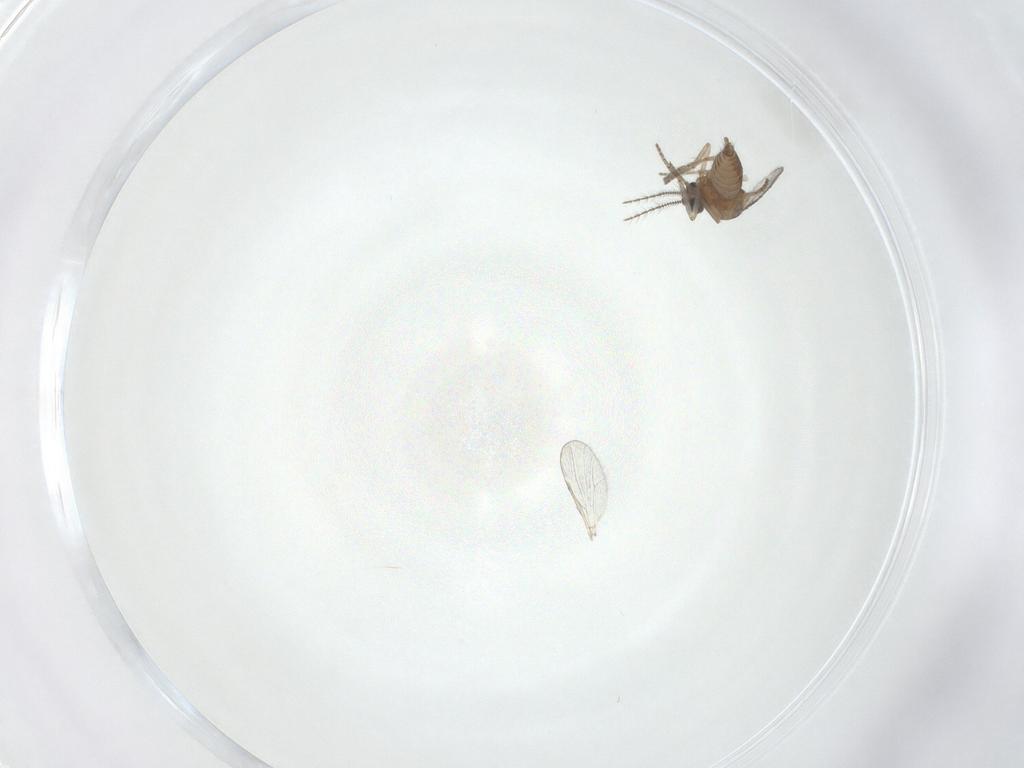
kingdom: Animalia
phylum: Arthropoda
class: Insecta
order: Diptera
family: Ceratopogonidae
